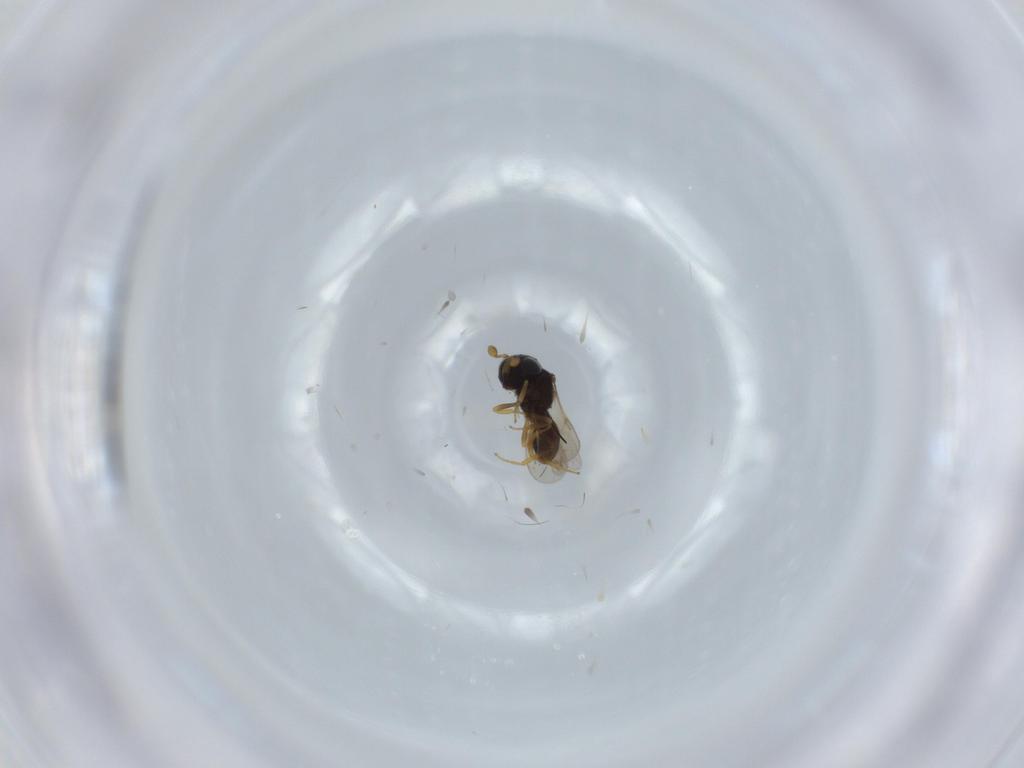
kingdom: Animalia
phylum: Arthropoda
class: Insecta
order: Hymenoptera
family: Scelionidae
